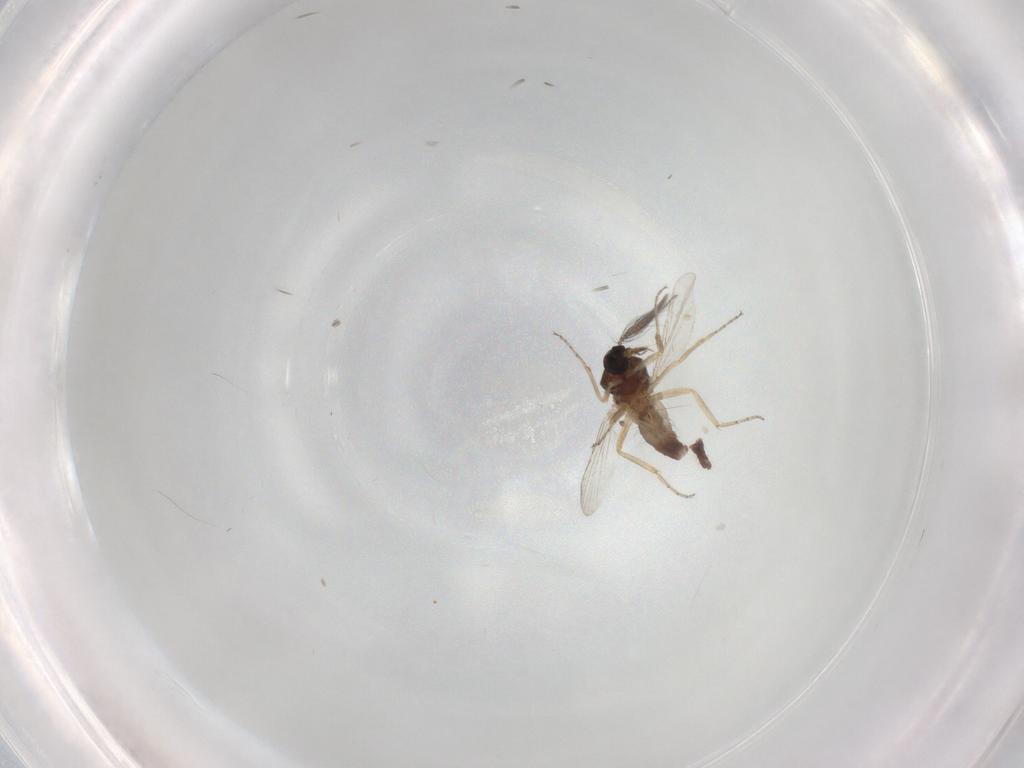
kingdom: Animalia
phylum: Arthropoda
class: Insecta
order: Diptera
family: Ceratopogonidae
